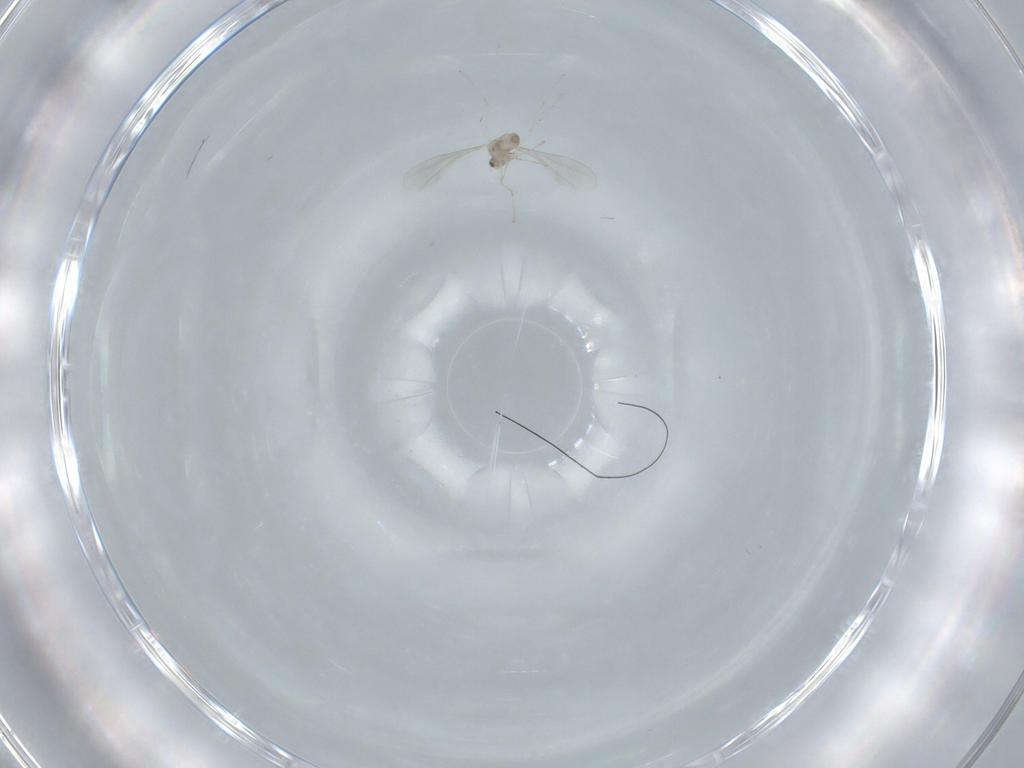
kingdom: Animalia
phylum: Arthropoda
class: Insecta
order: Diptera
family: Cecidomyiidae
